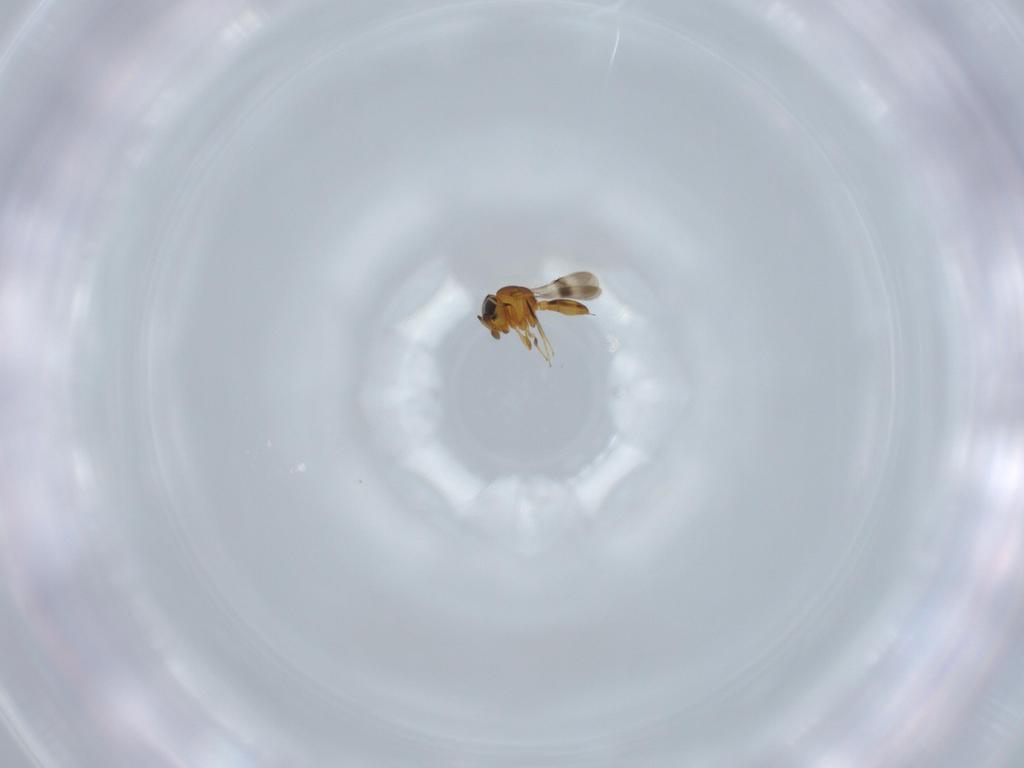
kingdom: Animalia
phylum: Arthropoda
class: Insecta
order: Hymenoptera
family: Scelionidae
